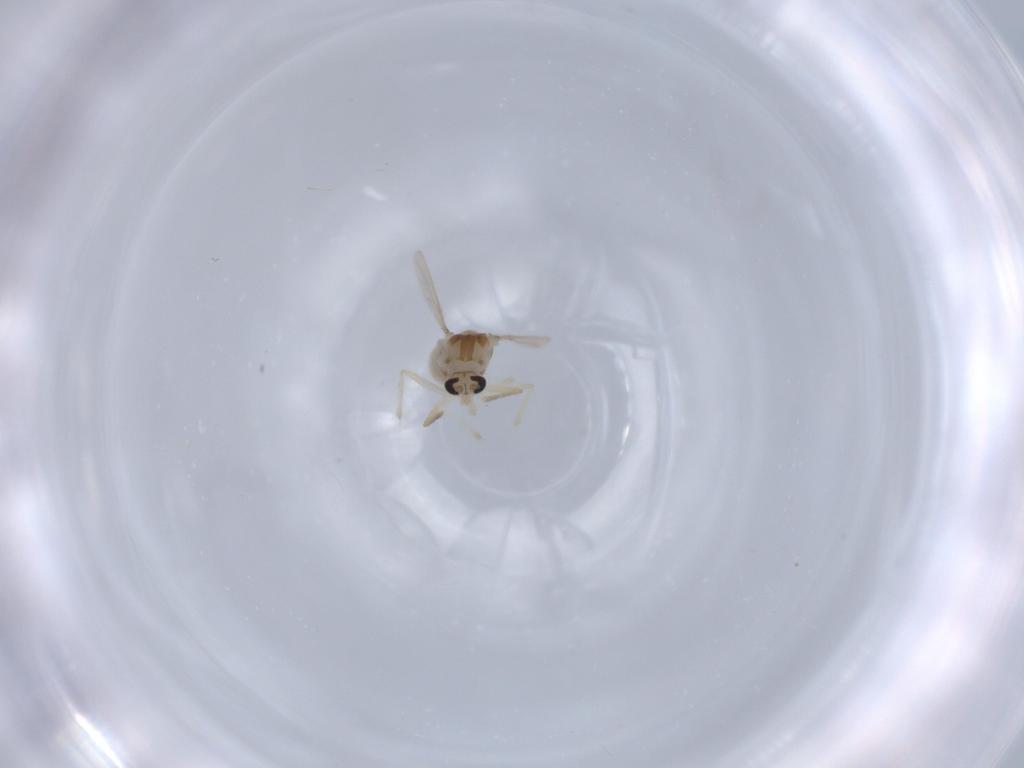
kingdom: Animalia
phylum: Arthropoda
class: Insecta
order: Diptera
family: Chironomidae
